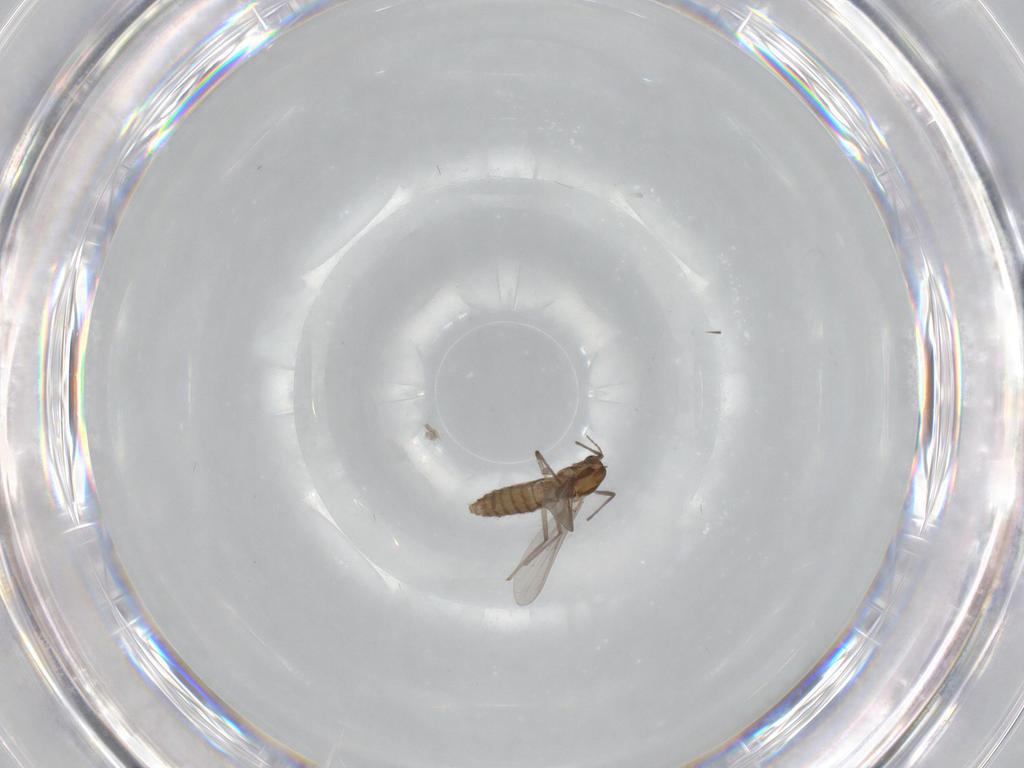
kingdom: Animalia
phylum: Arthropoda
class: Insecta
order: Diptera
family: Chironomidae
